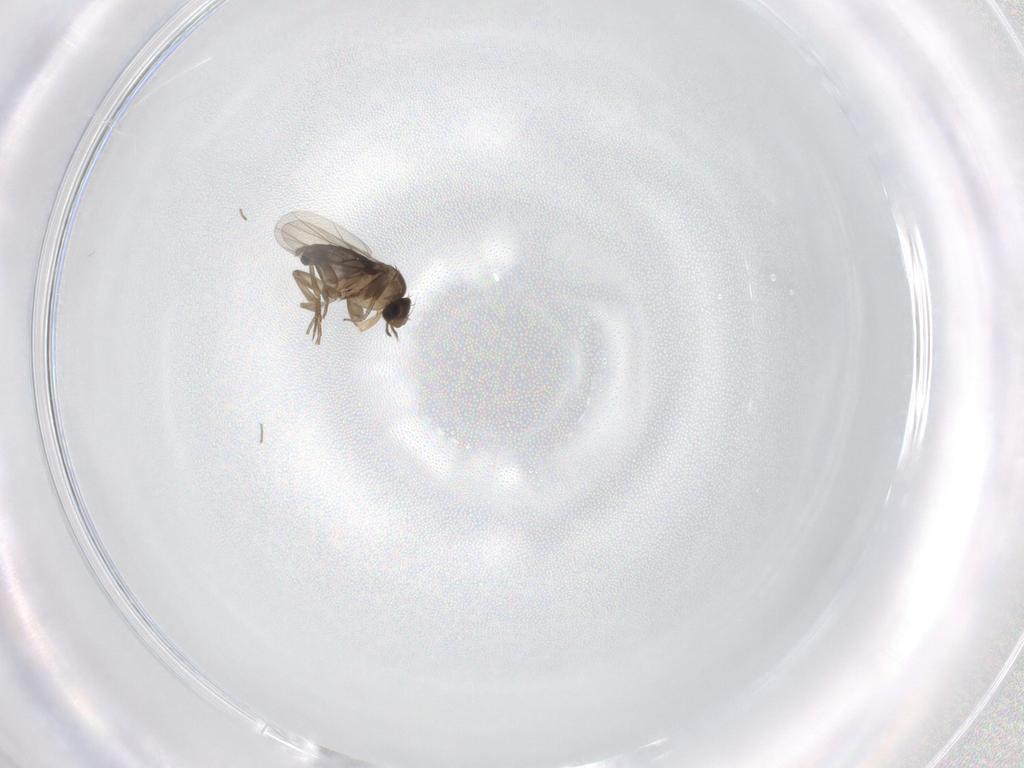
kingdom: Animalia
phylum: Arthropoda
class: Insecta
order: Diptera
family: Phoridae
